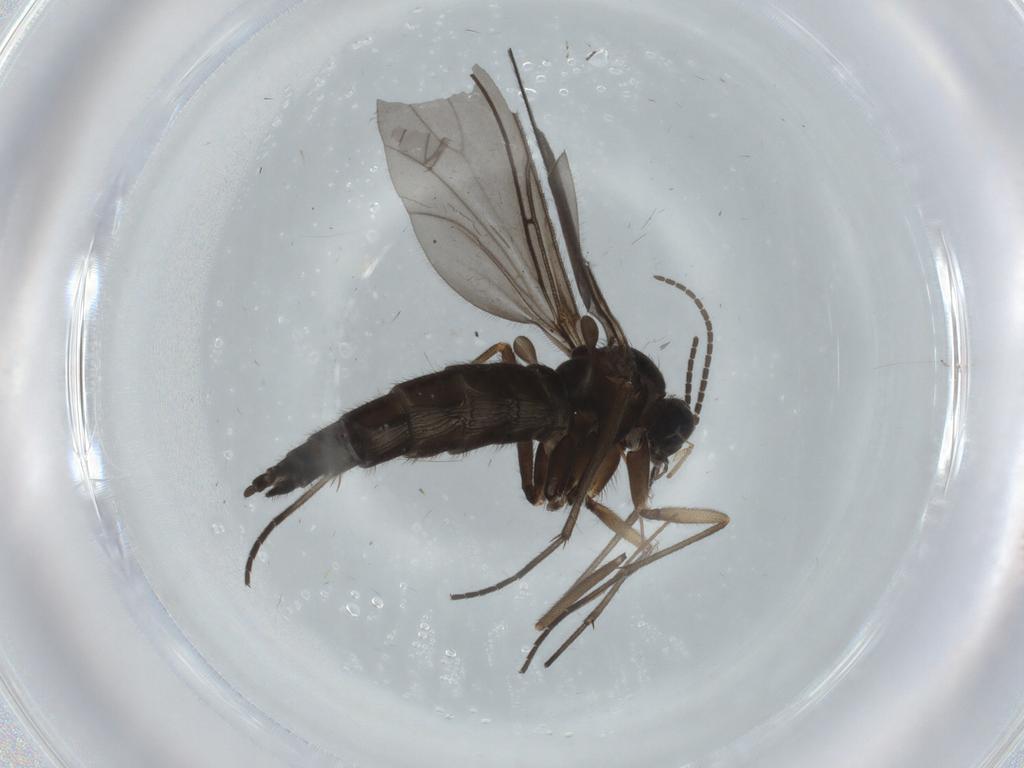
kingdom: Animalia
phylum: Arthropoda
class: Insecta
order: Diptera
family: Sciaridae
